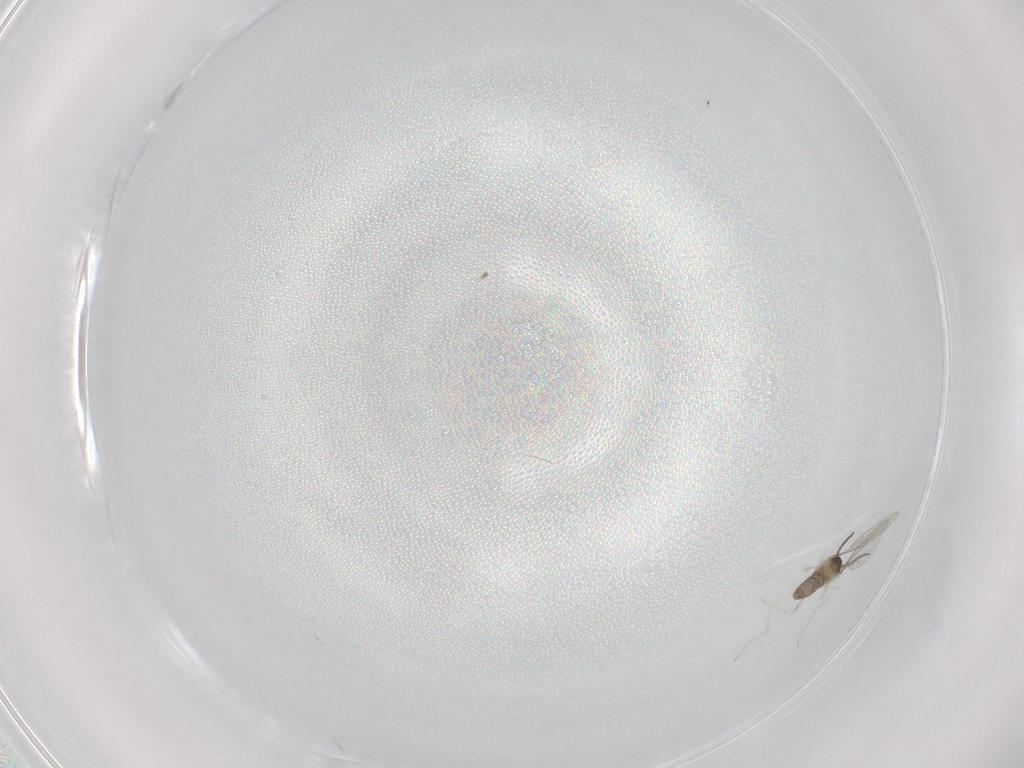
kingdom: Animalia
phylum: Arthropoda
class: Insecta
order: Diptera
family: Cecidomyiidae
